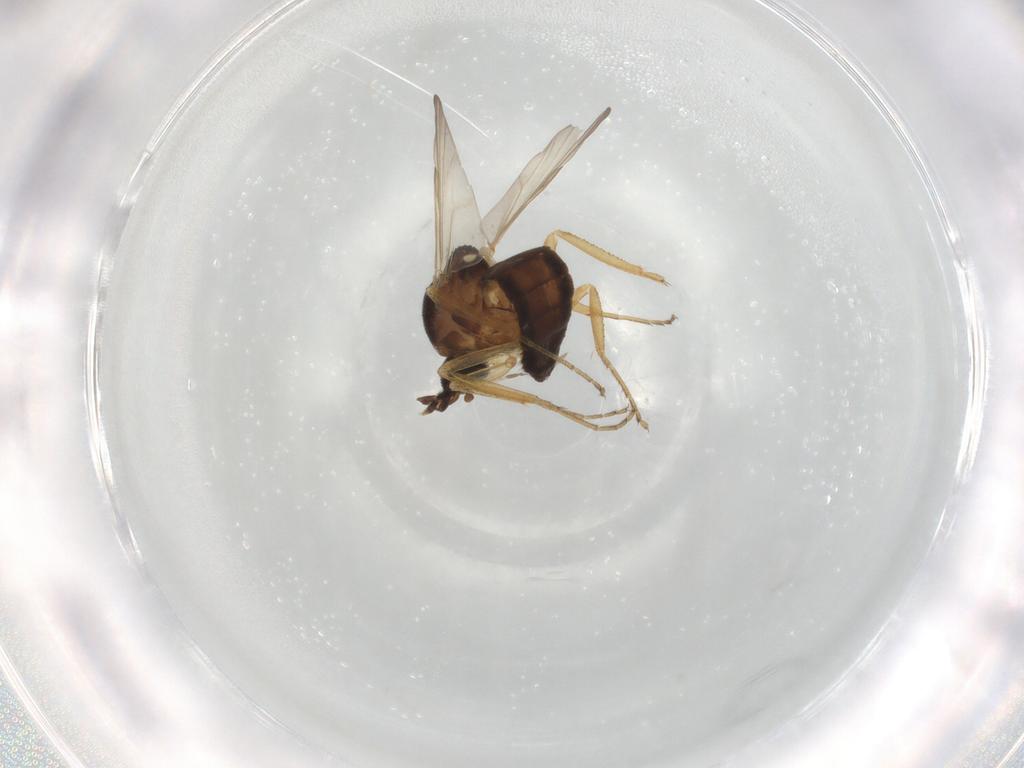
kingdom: Animalia
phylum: Arthropoda
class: Insecta
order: Diptera
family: Ceratopogonidae
